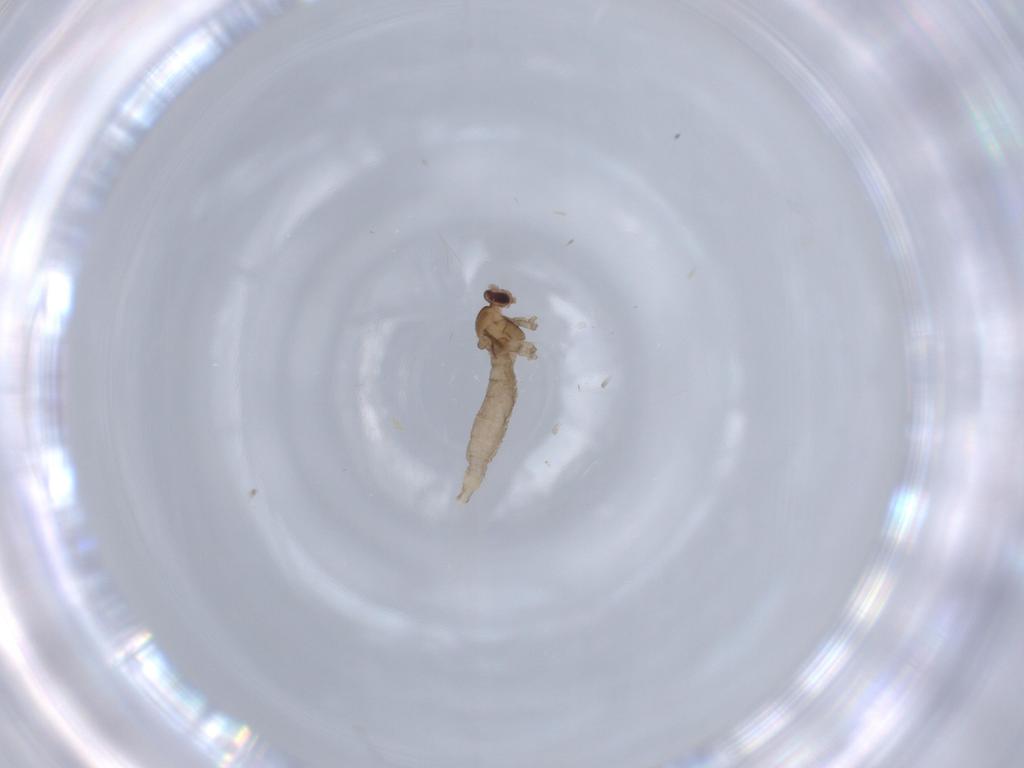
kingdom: Animalia
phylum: Arthropoda
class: Insecta
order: Diptera
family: Cecidomyiidae
